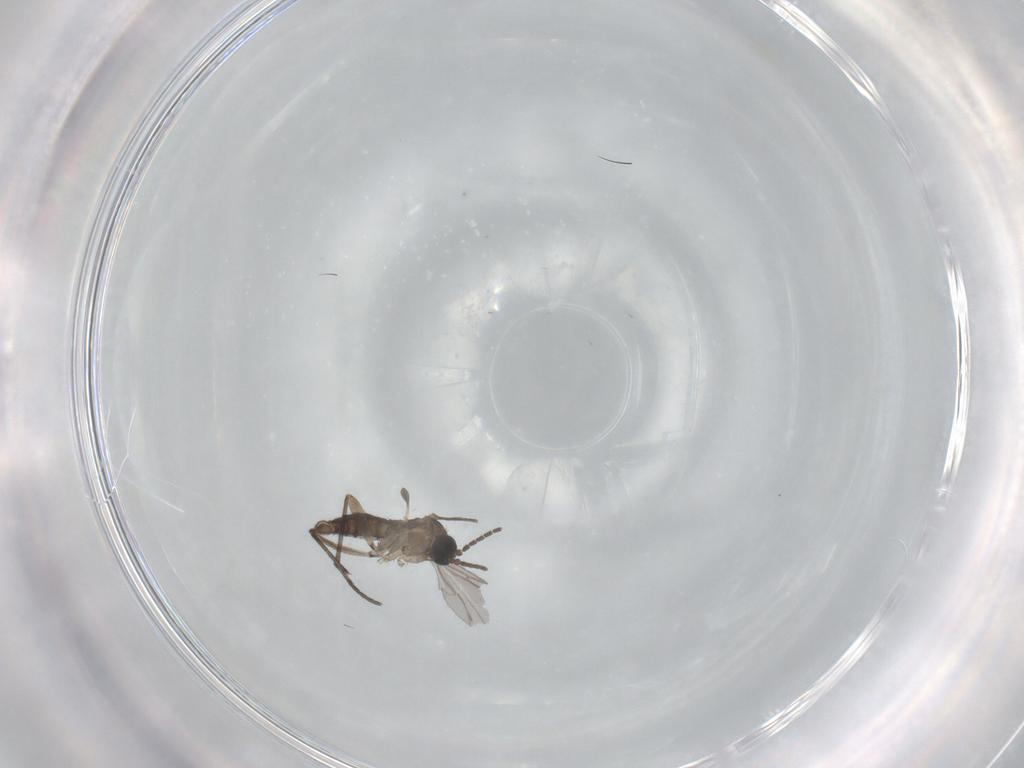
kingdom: Animalia
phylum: Arthropoda
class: Insecta
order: Diptera
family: Sciaridae
